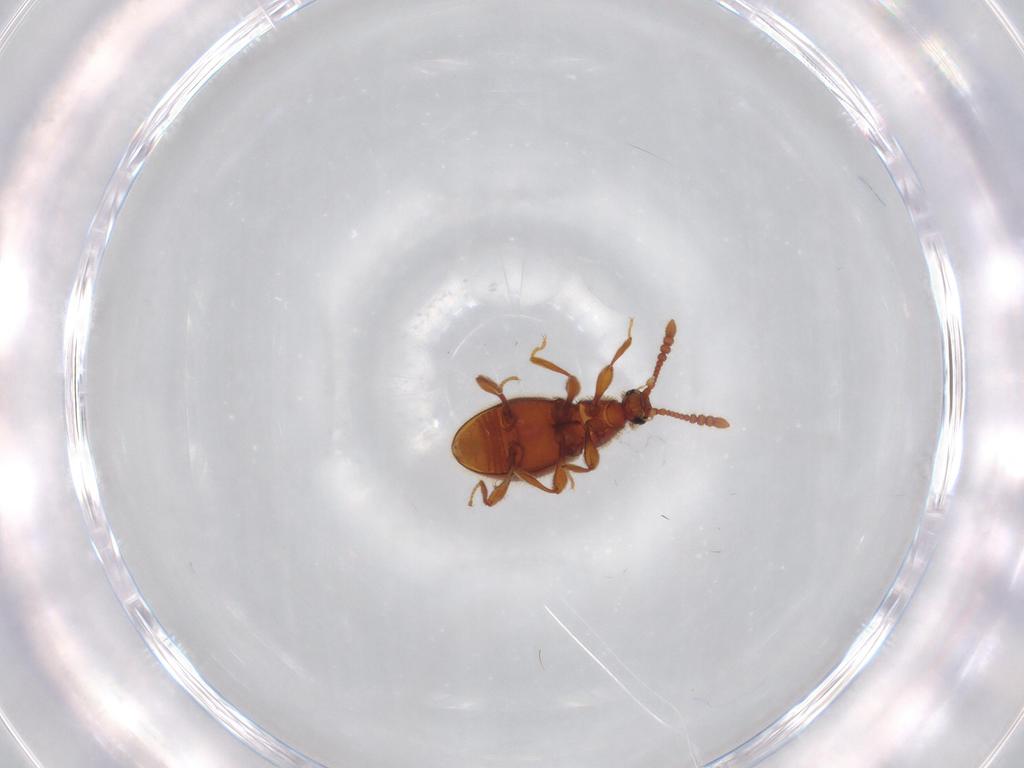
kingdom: Animalia
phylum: Arthropoda
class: Insecta
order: Coleoptera
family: Staphylinidae
